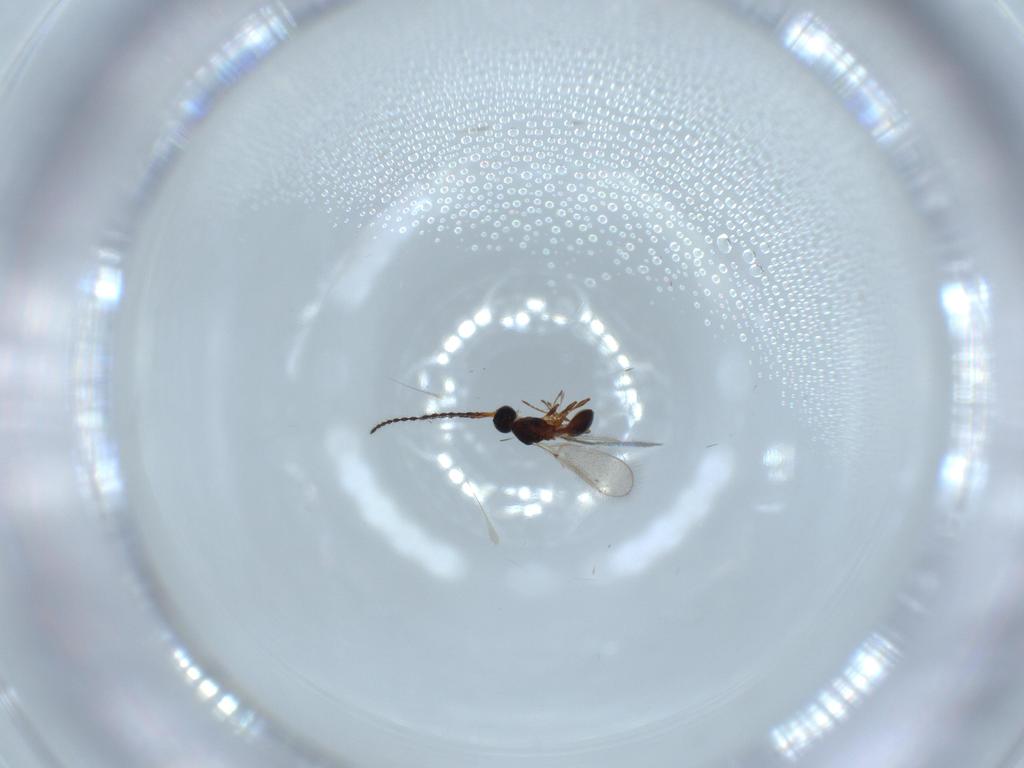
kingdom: Animalia
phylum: Arthropoda
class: Insecta
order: Hymenoptera
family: Diapriidae
